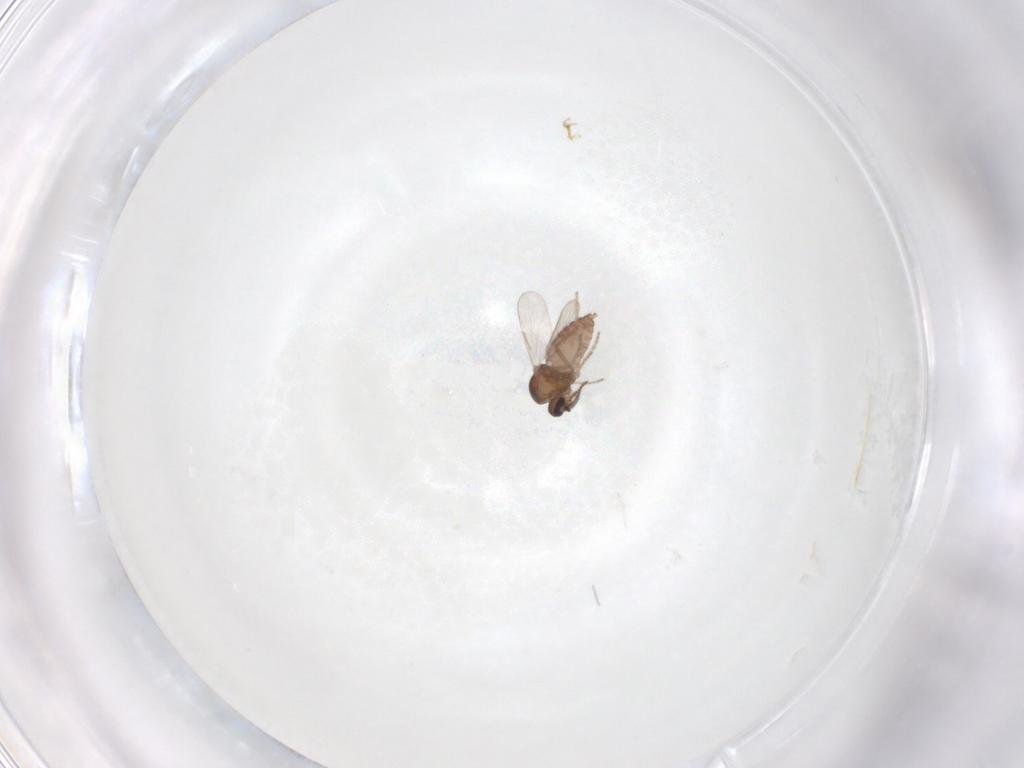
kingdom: Animalia
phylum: Arthropoda
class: Insecta
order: Diptera
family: Ceratopogonidae
